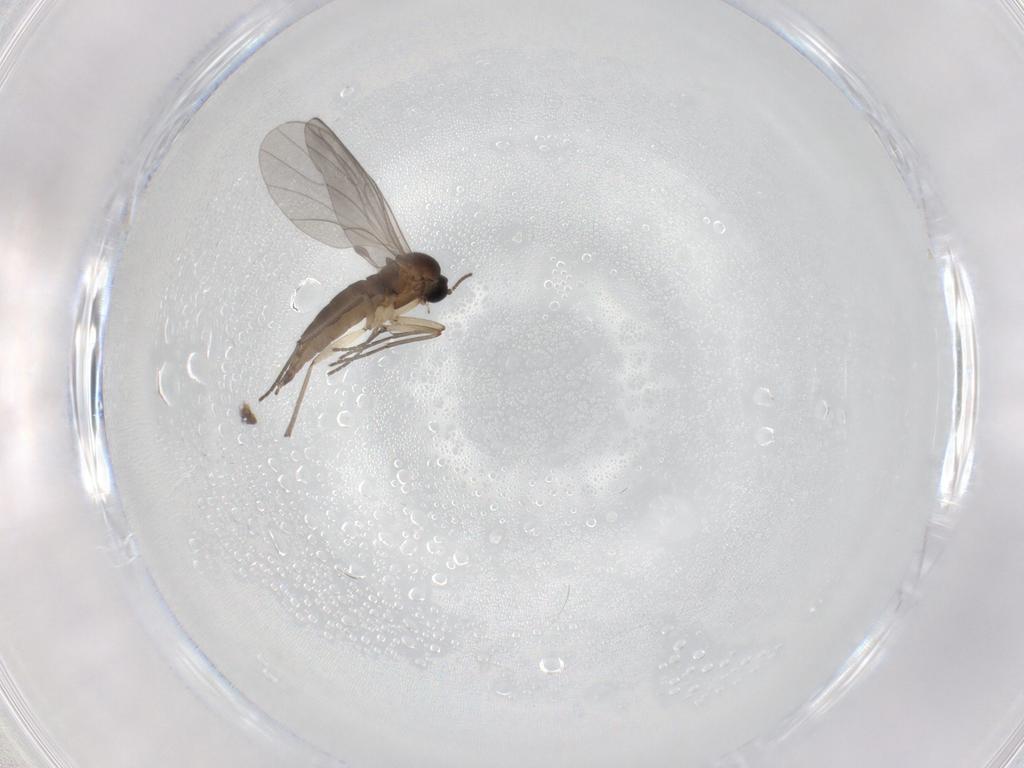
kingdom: Animalia
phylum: Arthropoda
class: Insecta
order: Diptera
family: Sciaridae
